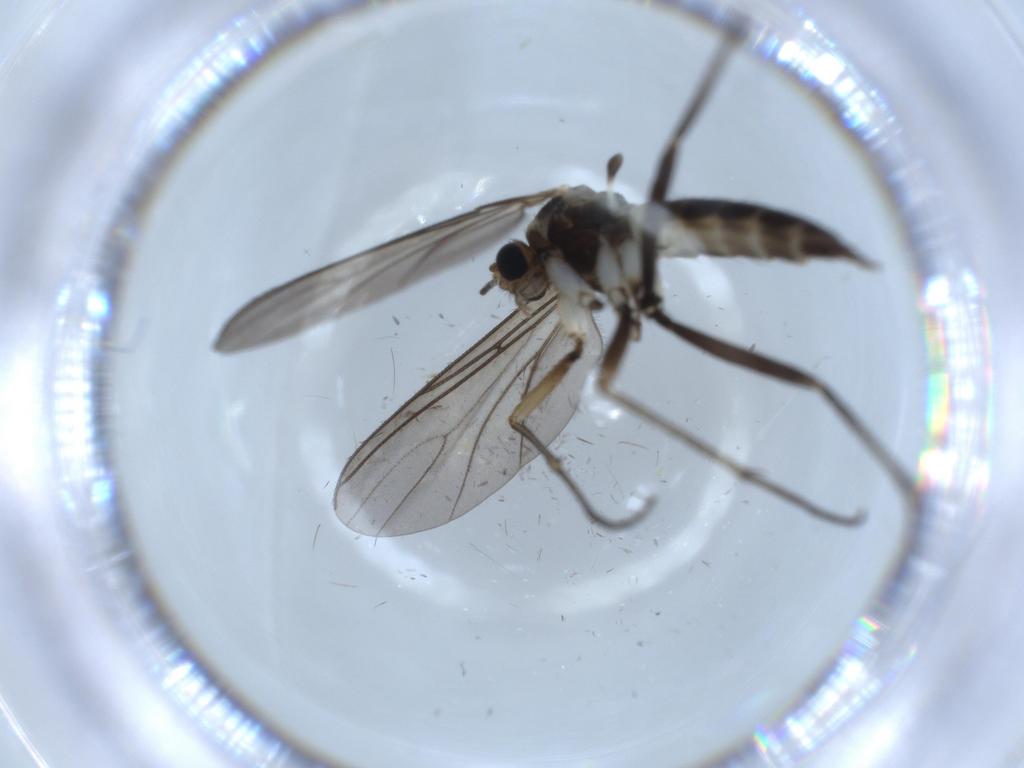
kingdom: Animalia
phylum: Arthropoda
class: Insecta
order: Diptera
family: Sciaridae
